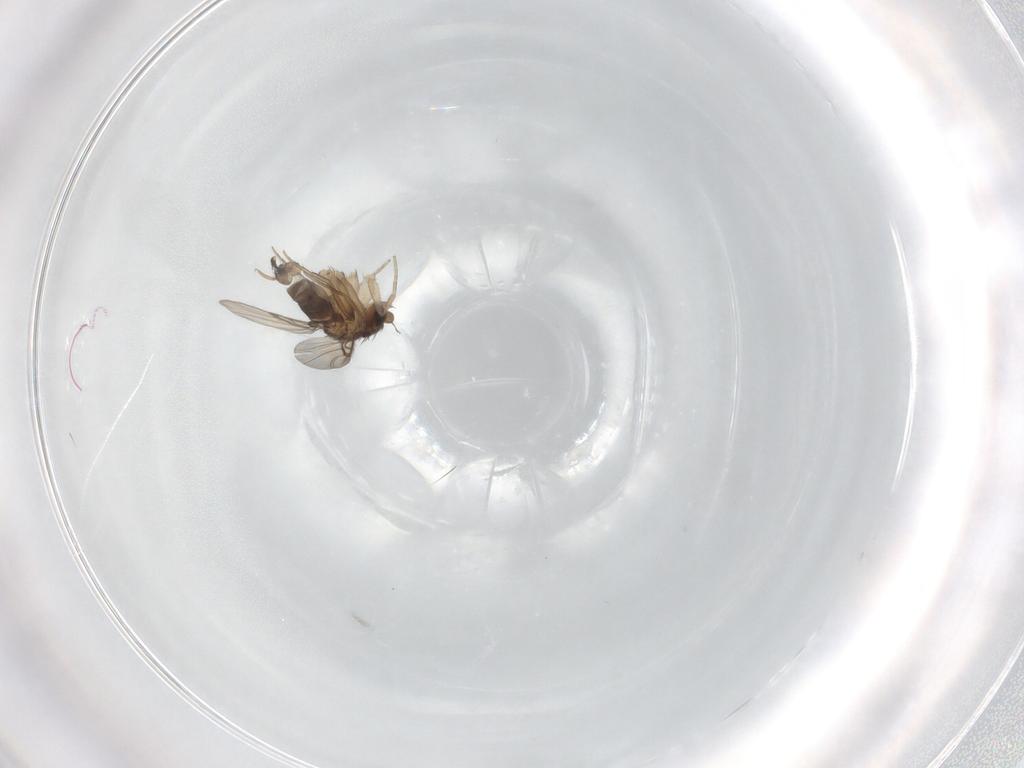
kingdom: Animalia
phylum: Arthropoda
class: Insecta
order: Diptera
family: Phoridae
